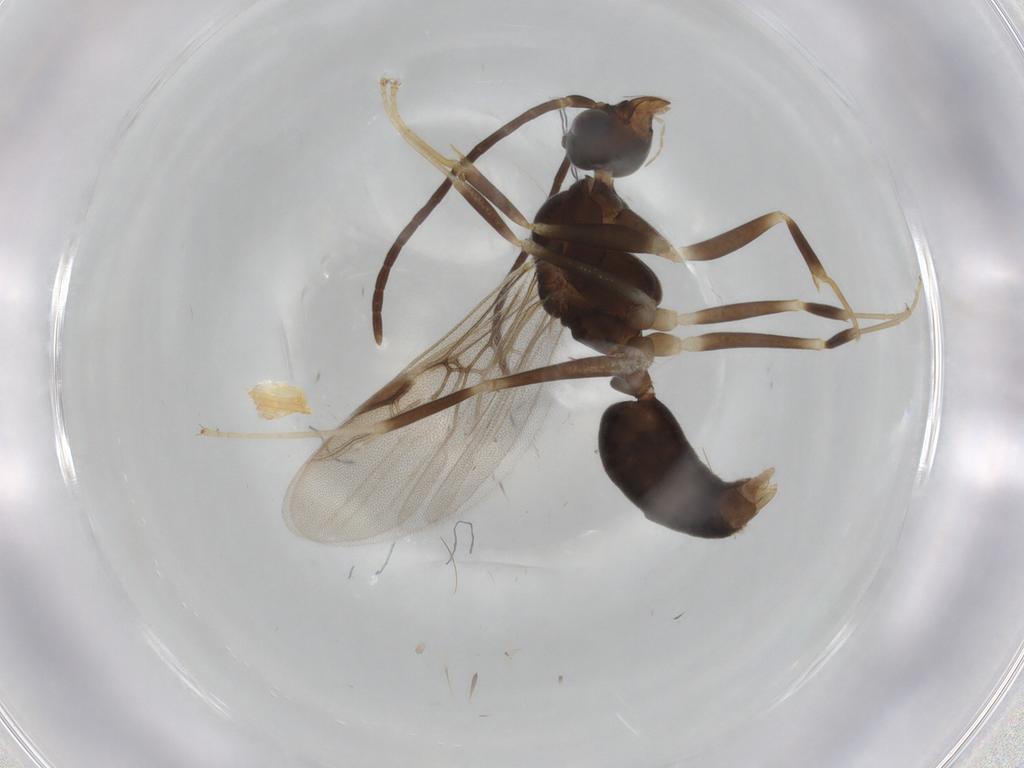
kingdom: Animalia
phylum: Arthropoda
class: Insecta
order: Hymenoptera
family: Formicidae
